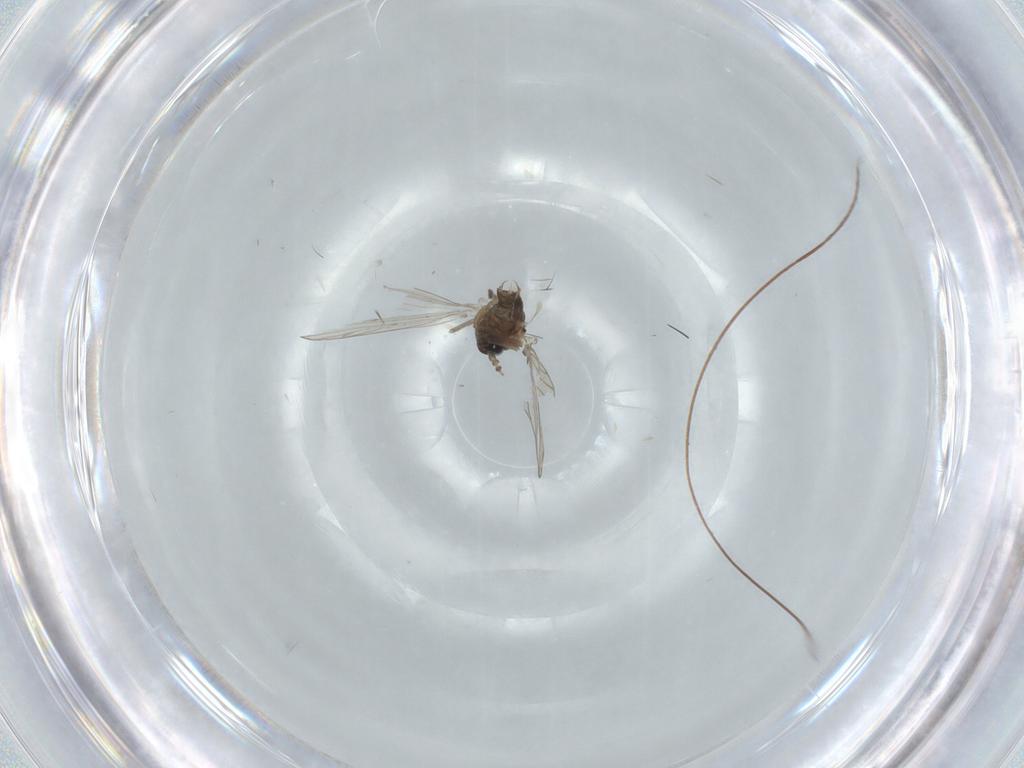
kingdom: Animalia
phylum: Arthropoda
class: Insecta
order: Diptera
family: Psychodidae
